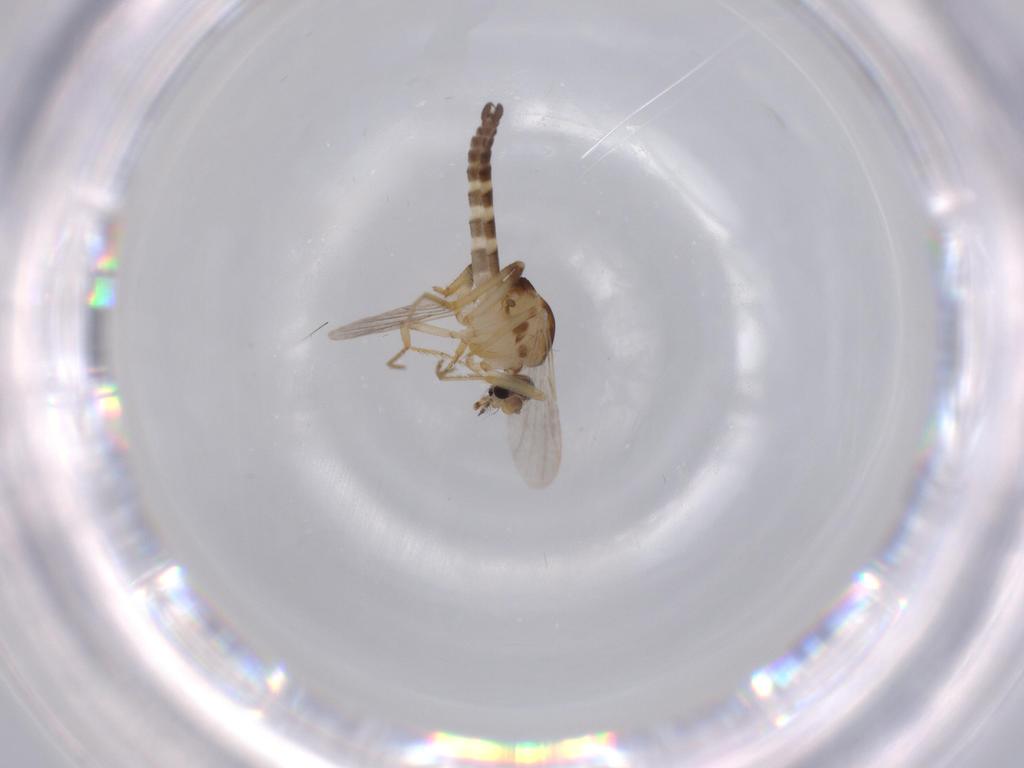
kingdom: Animalia
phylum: Arthropoda
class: Insecta
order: Diptera
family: Ceratopogonidae
